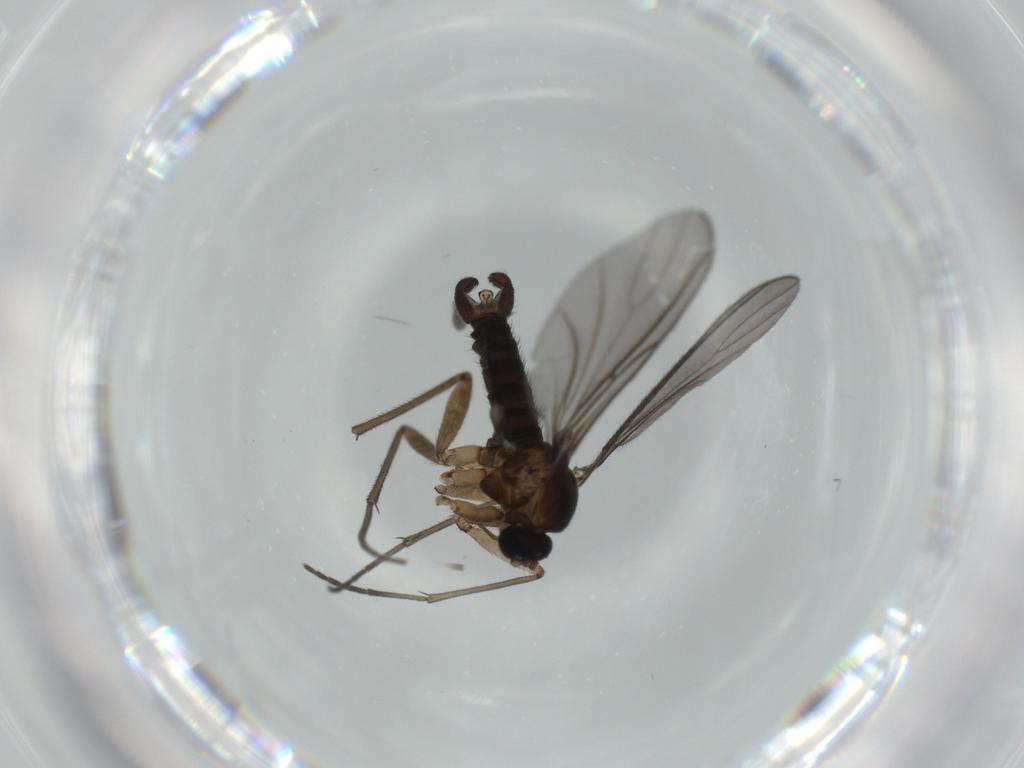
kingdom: Animalia
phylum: Arthropoda
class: Insecta
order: Diptera
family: Sciaridae
